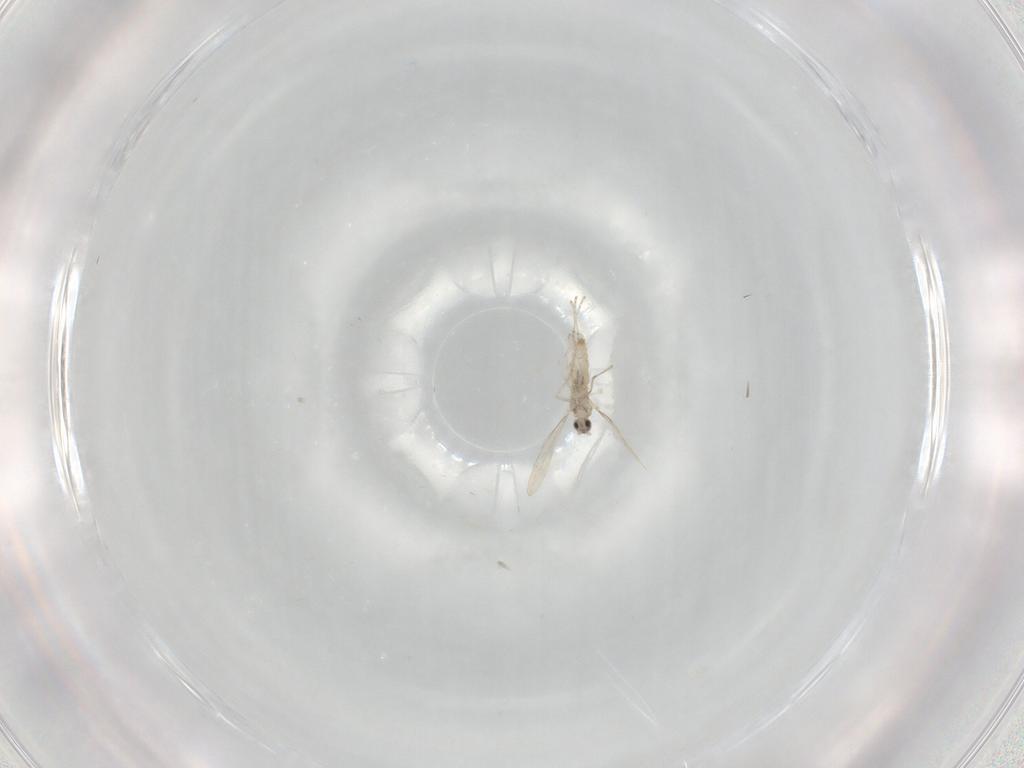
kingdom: Animalia
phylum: Arthropoda
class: Insecta
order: Diptera
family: Cecidomyiidae
